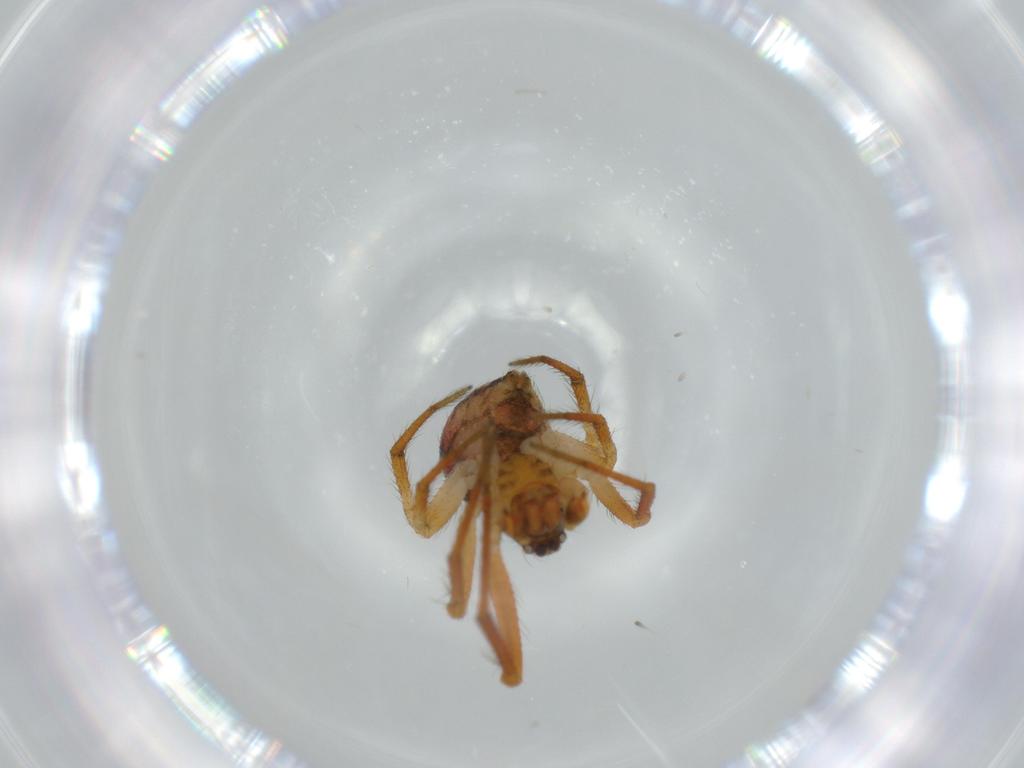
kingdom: Animalia
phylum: Arthropoda
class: Arachnida
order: Araneae
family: Theridiidae
